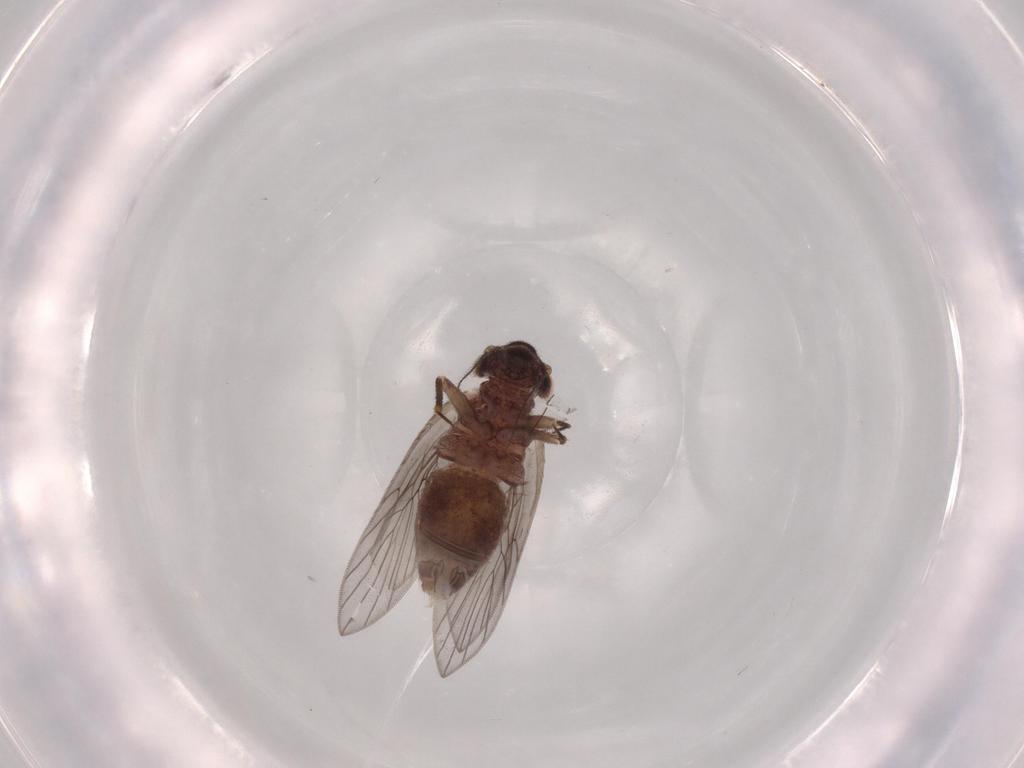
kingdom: Animalia
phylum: Arthropoda
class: Insecta
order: Psocodea
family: Lepidopsocidae
